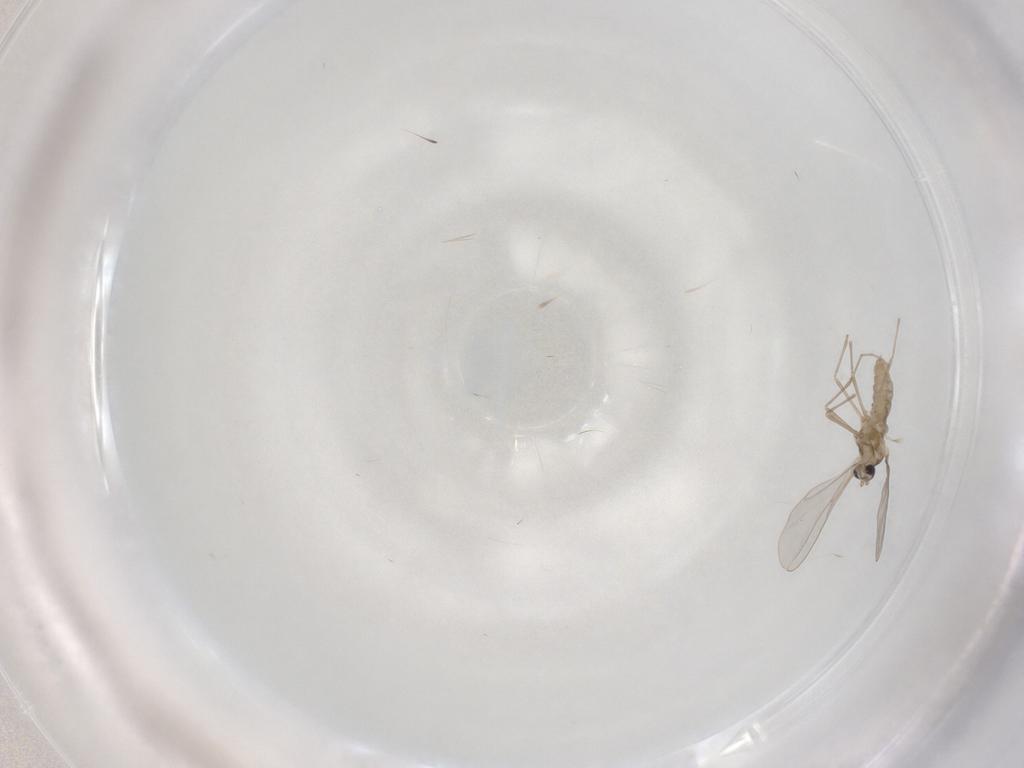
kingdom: Animalia
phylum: Arthropoda
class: Insecta
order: Diptera
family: Cecidomyiidae
